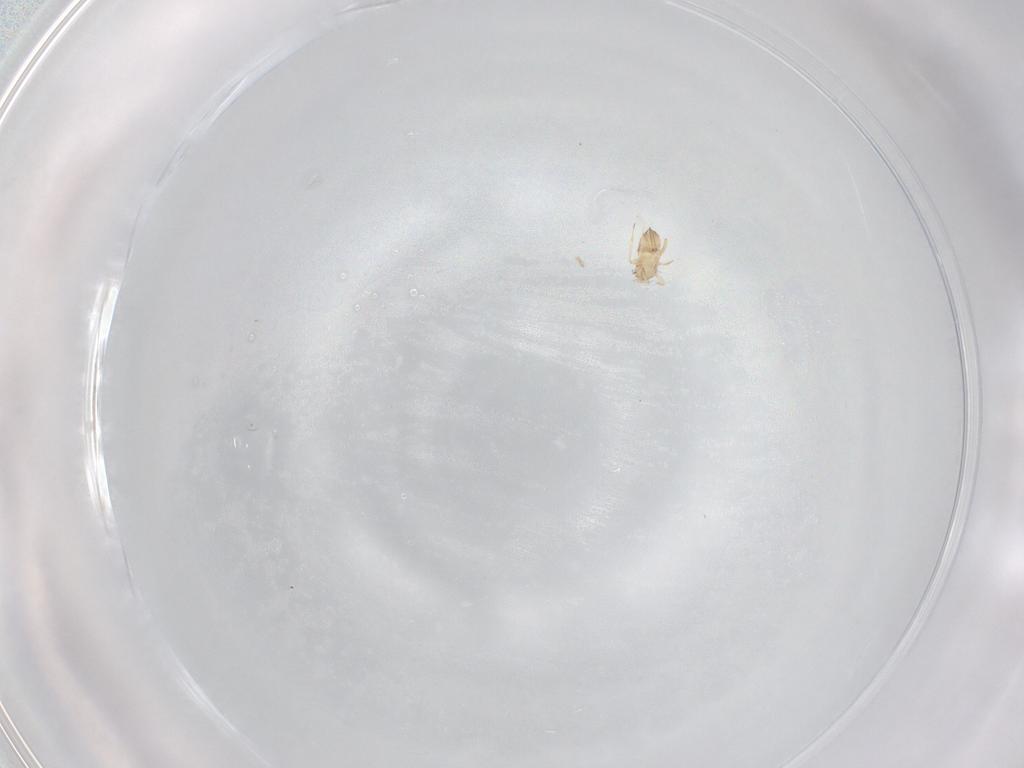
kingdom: Animalia
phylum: Arthropoda
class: Insecta
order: Hymenoptera
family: Trichogrammatidae
